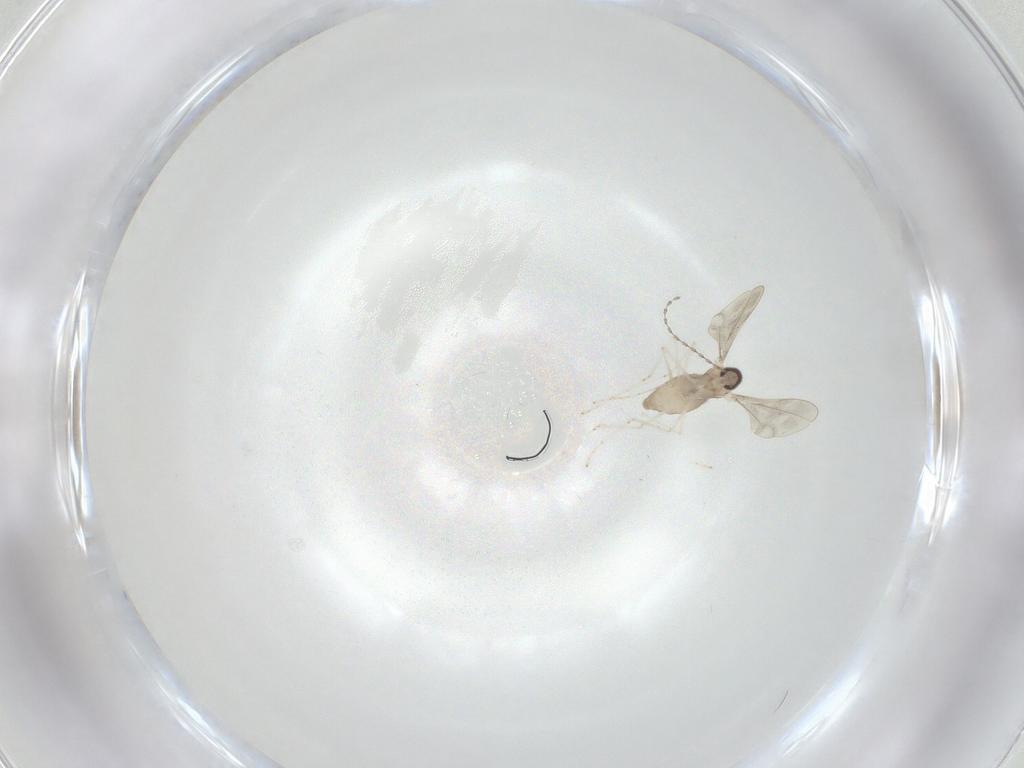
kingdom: Animalia
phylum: Arthropoda
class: Insecta
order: Diptera
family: Cecidomyiidae
